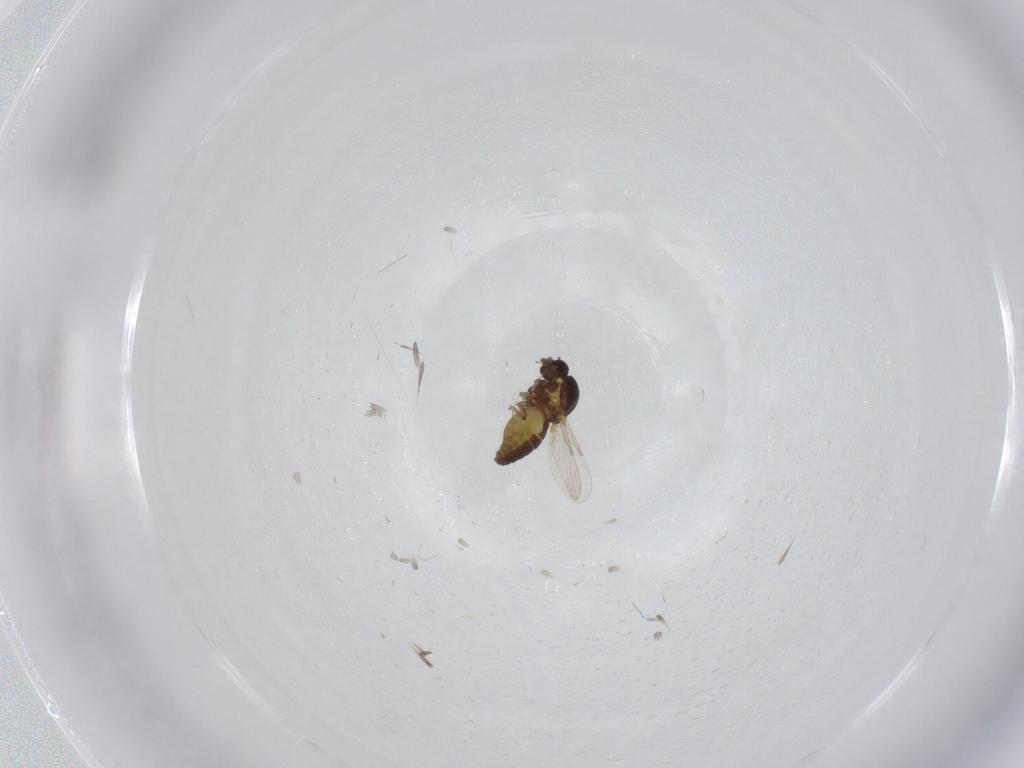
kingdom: Animalia
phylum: Arthropoda
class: Insecta
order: Diptera
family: Ceratopogonidae
